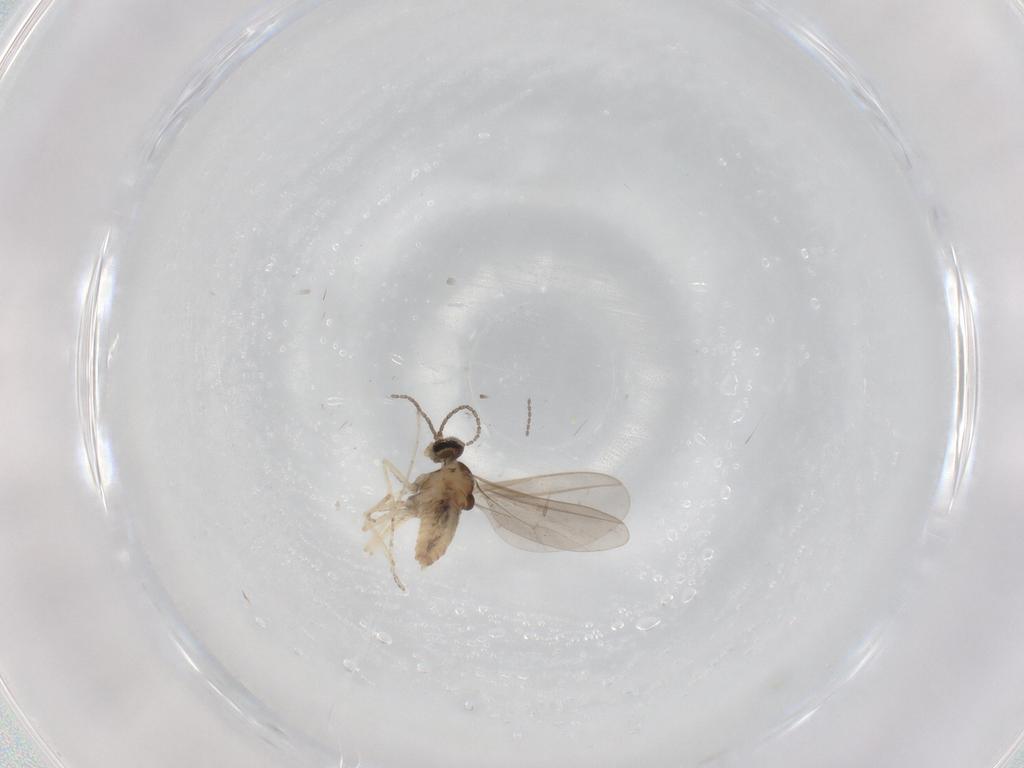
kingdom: Animalia
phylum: Arthropoda
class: Insecta
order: Diptera
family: Cecidomyiidae
